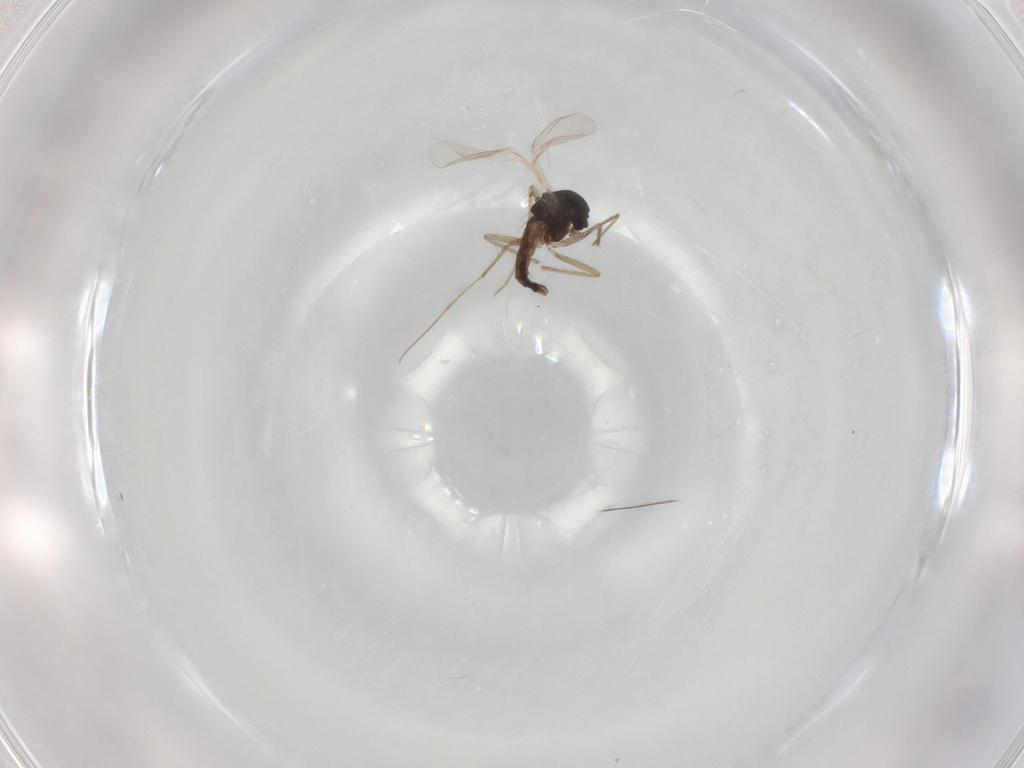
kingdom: Animalia
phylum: Arthropoda
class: Insecta
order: Diptera
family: Chironomidae
